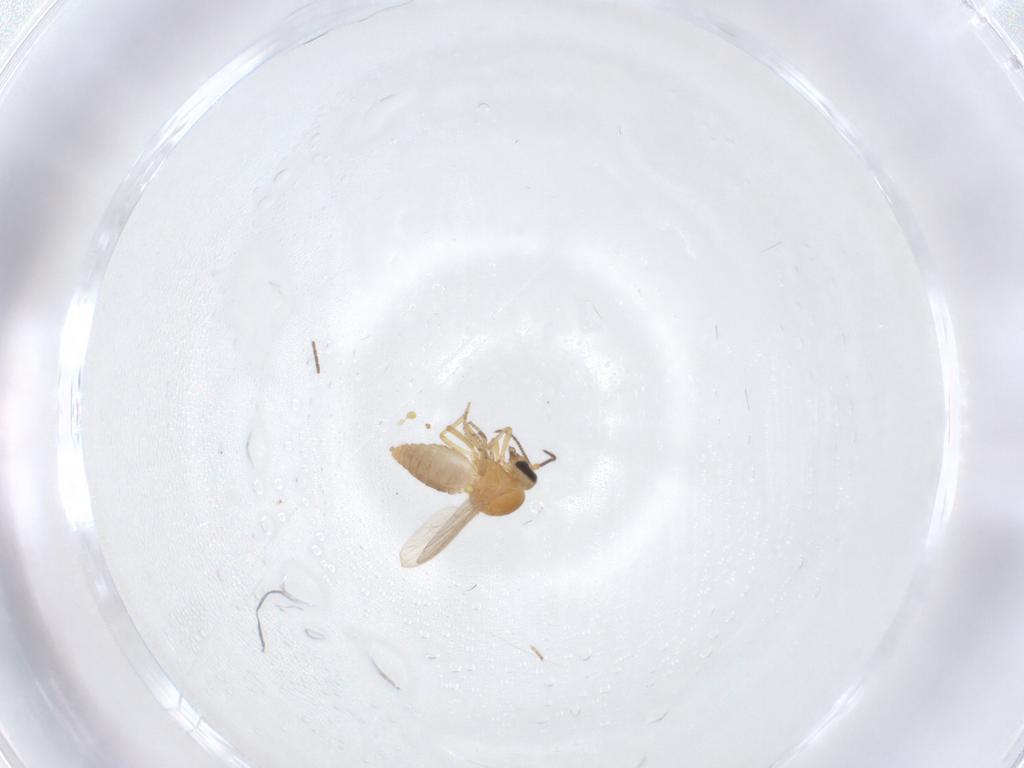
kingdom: Animalia
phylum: Arthropoda
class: Insecta
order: Diptera
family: Ceratopogonidae
